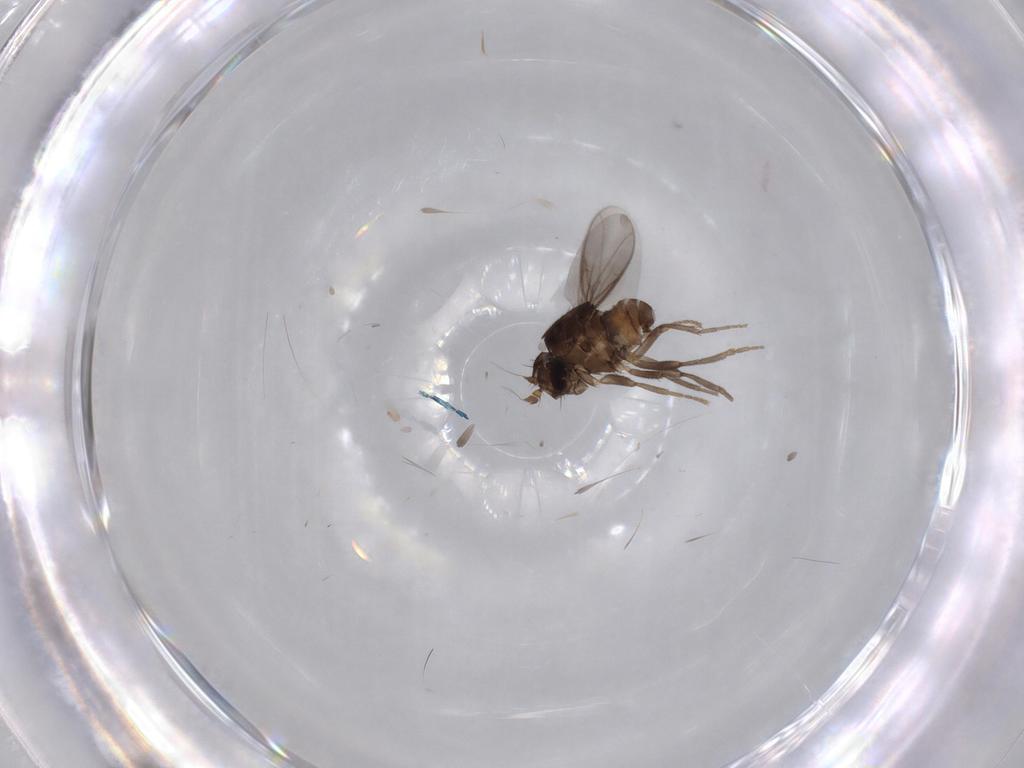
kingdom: Animalia
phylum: Arthropoda
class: Insecta
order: Diptera
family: Sphaeroceridae
